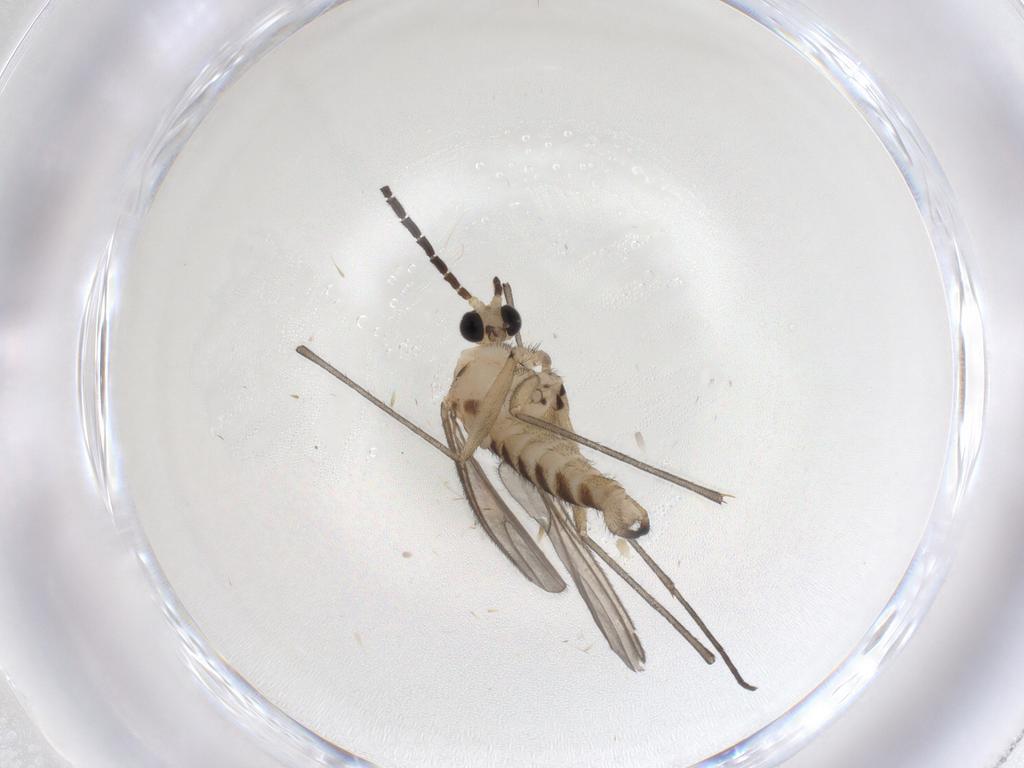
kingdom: Animalia
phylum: Arthropoda
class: Insecta
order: Diptera
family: Sciaridae
